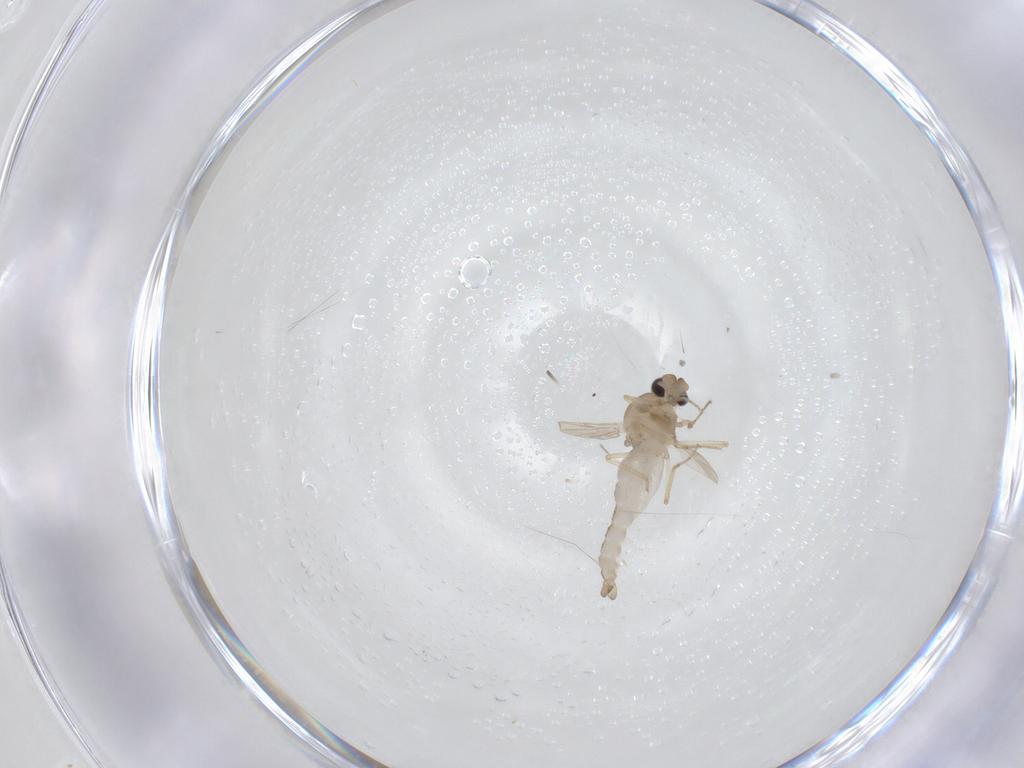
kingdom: Animalia
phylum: Arthropoda
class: Insecta
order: Diptera
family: Ceratopogonidae
